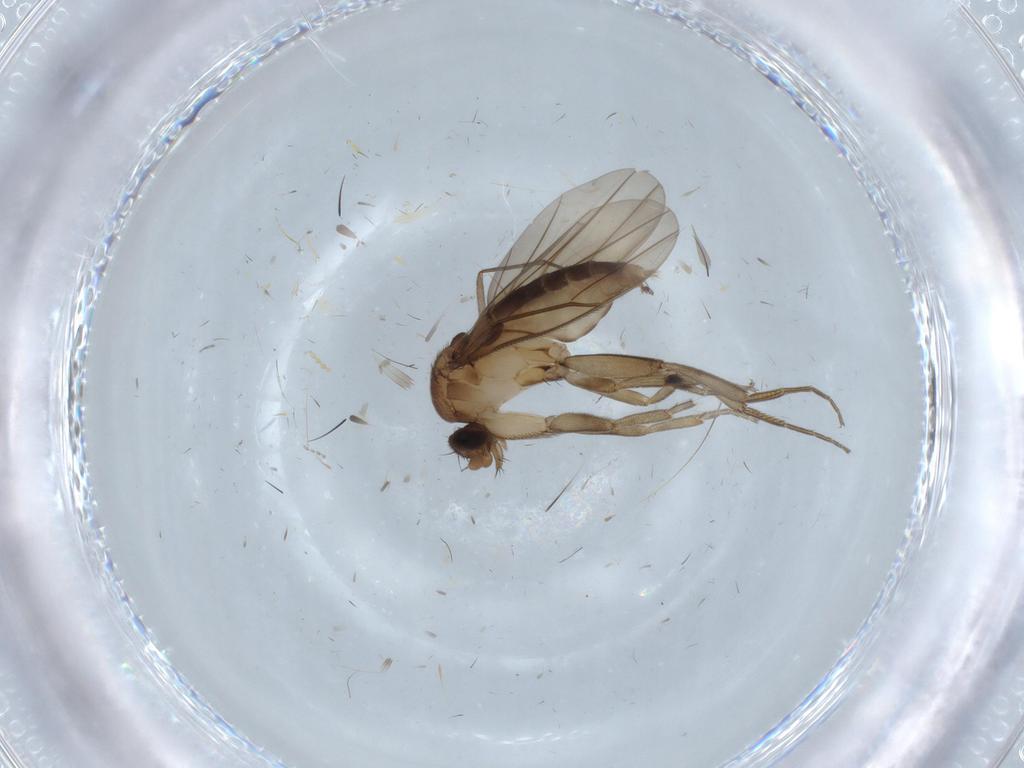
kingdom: Animalia
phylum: Arthropoda
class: Insecta
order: Diptera
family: Phoridae
